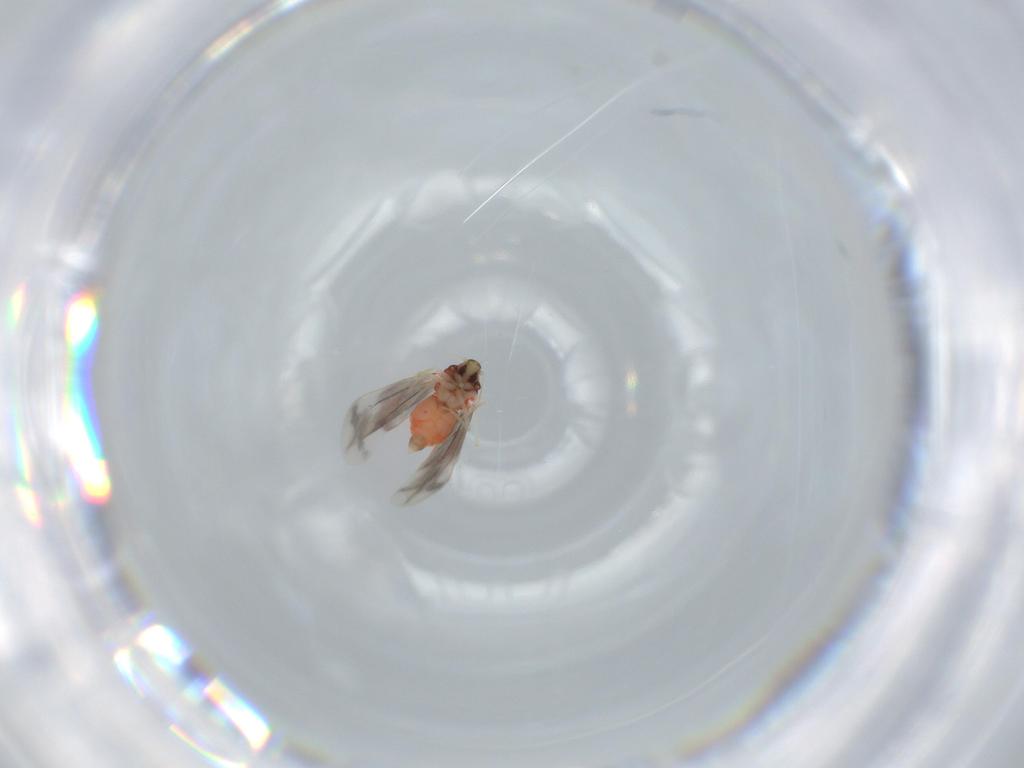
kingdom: Animalia
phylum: Arthropoda
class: Insecta
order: Hemiptera
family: Aleyrodidae
